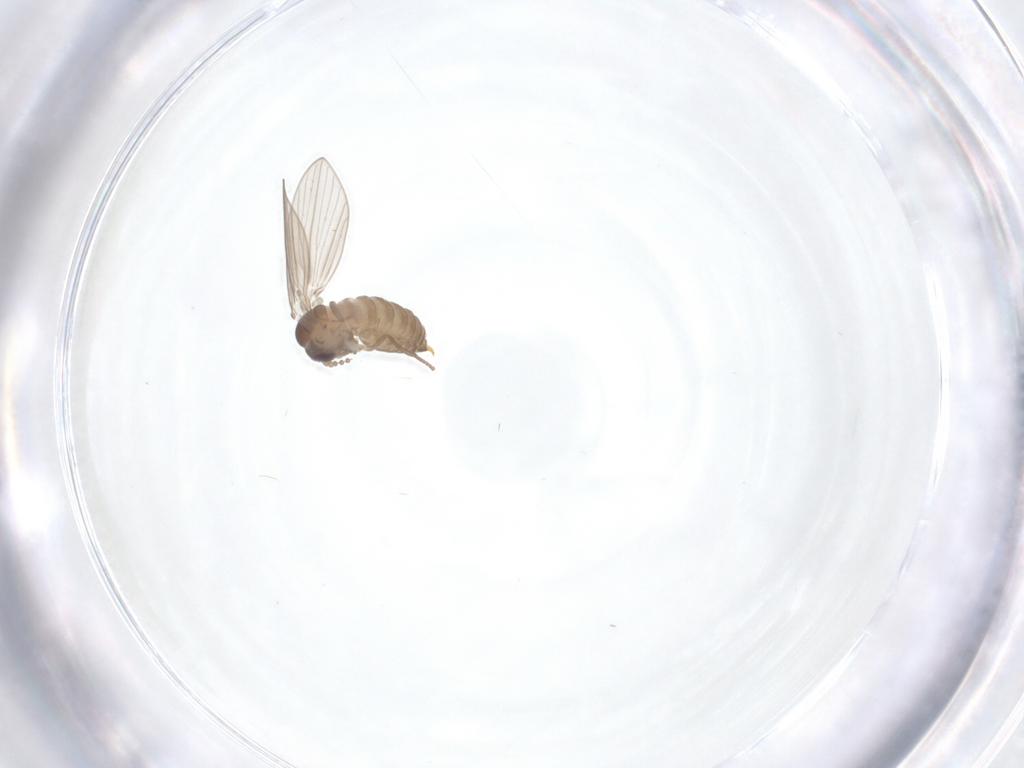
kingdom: Animalia
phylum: Arthropoda
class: Insecta
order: Diptera
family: Psychodidae
